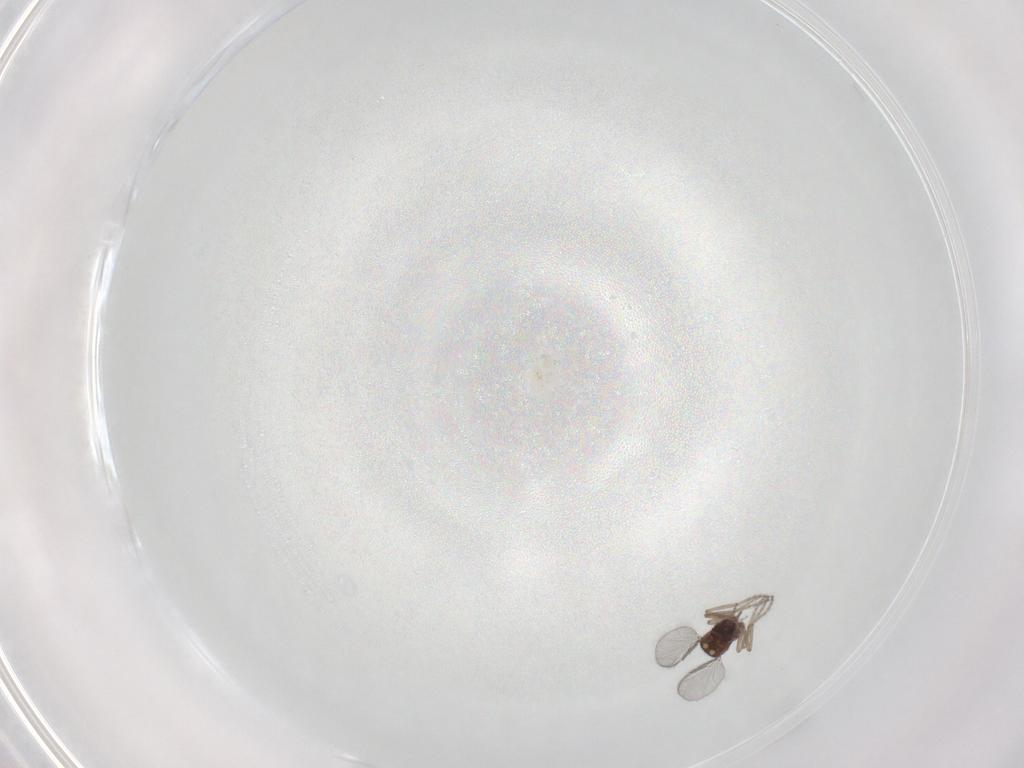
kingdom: Animalia
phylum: Arthropoda
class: Insecta
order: Diptera
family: Ceratopogonidae
